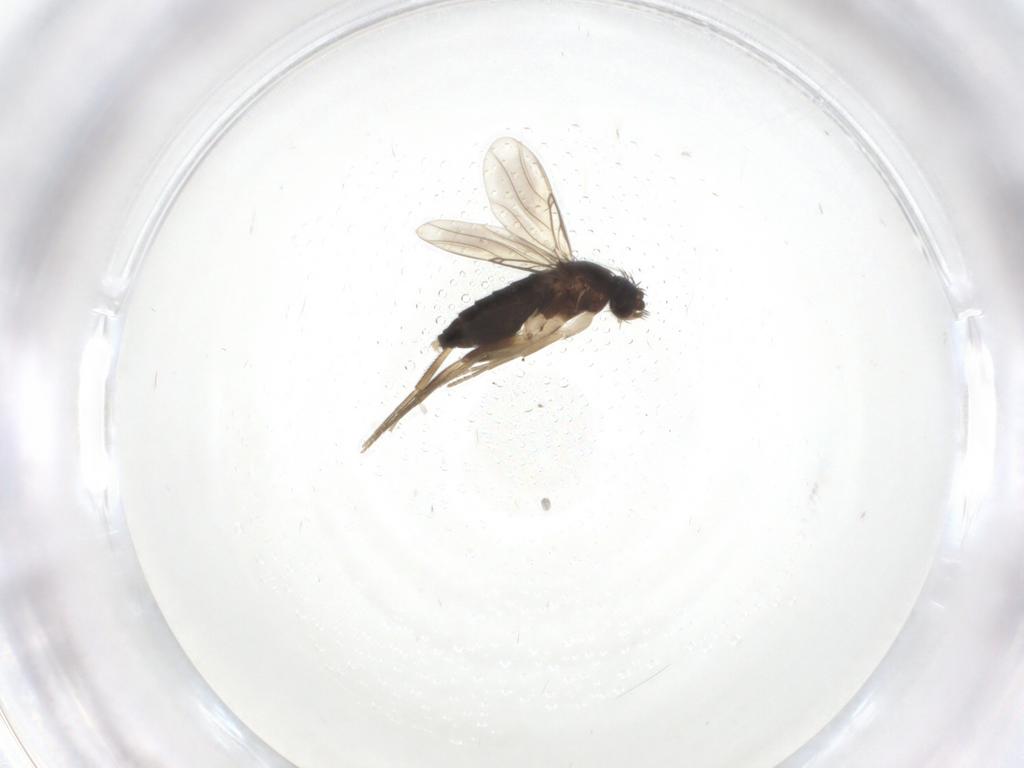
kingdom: Animalia
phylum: Arthropoda
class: Insecta
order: Diptera
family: Phoridae
